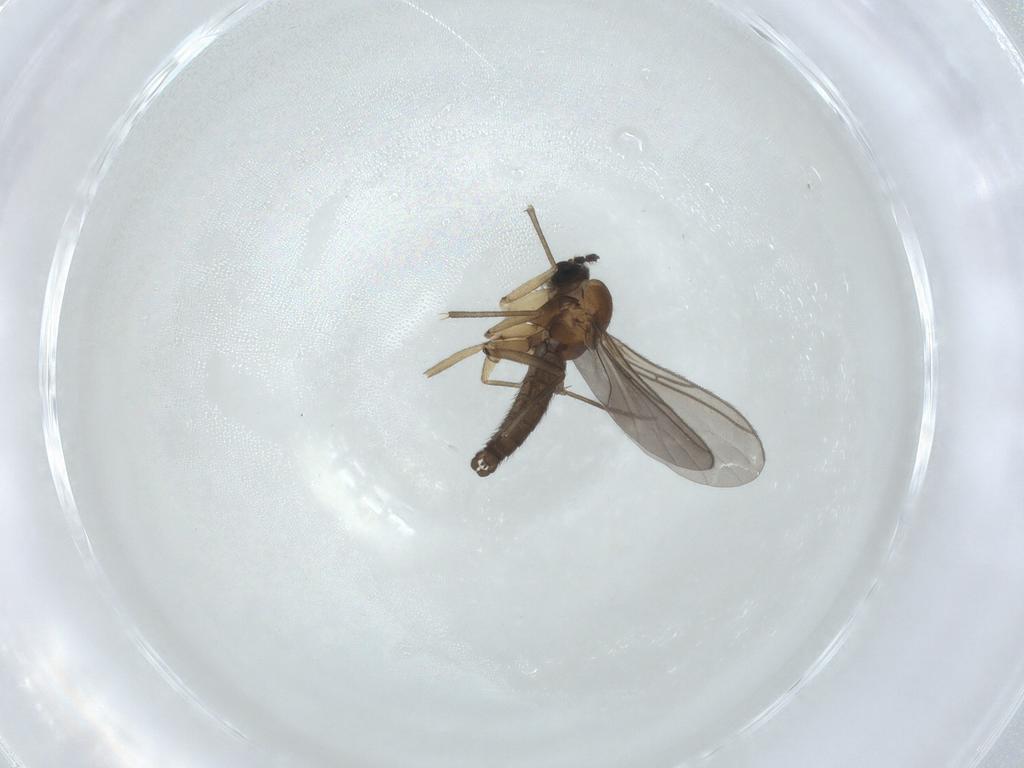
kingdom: Animalia
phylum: Arthropoda
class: Insecta
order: Diptera
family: Sciaridae
